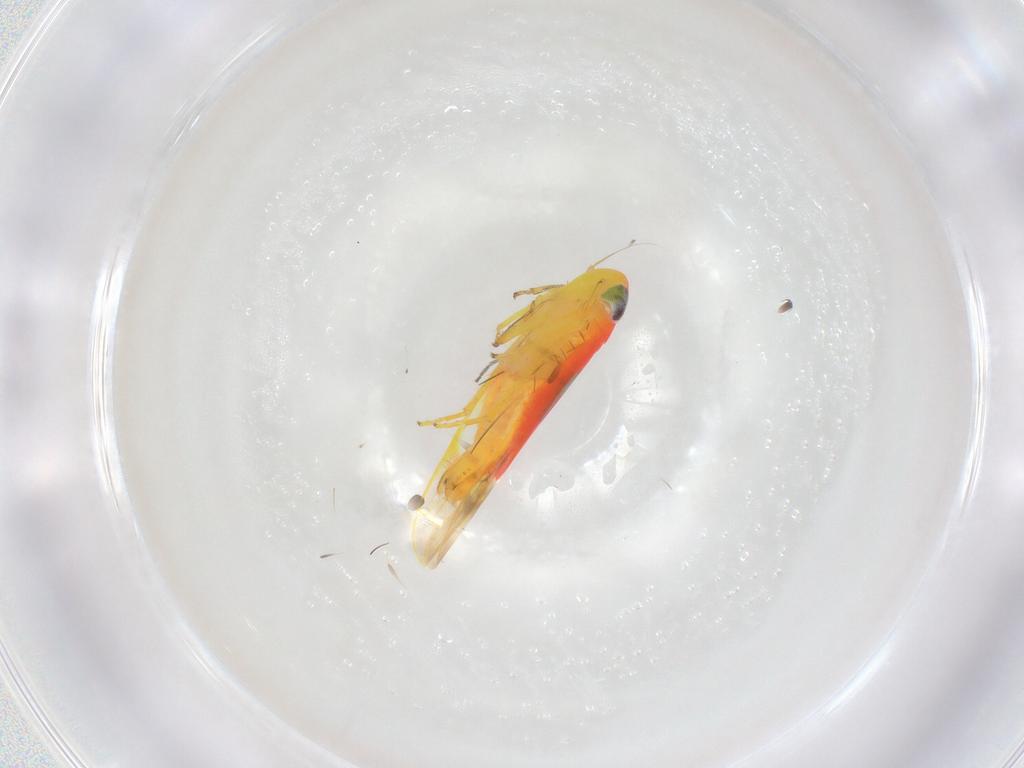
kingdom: Animalia
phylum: Arthropoda
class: Insecta
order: Hemiptera
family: Cicadellidae
